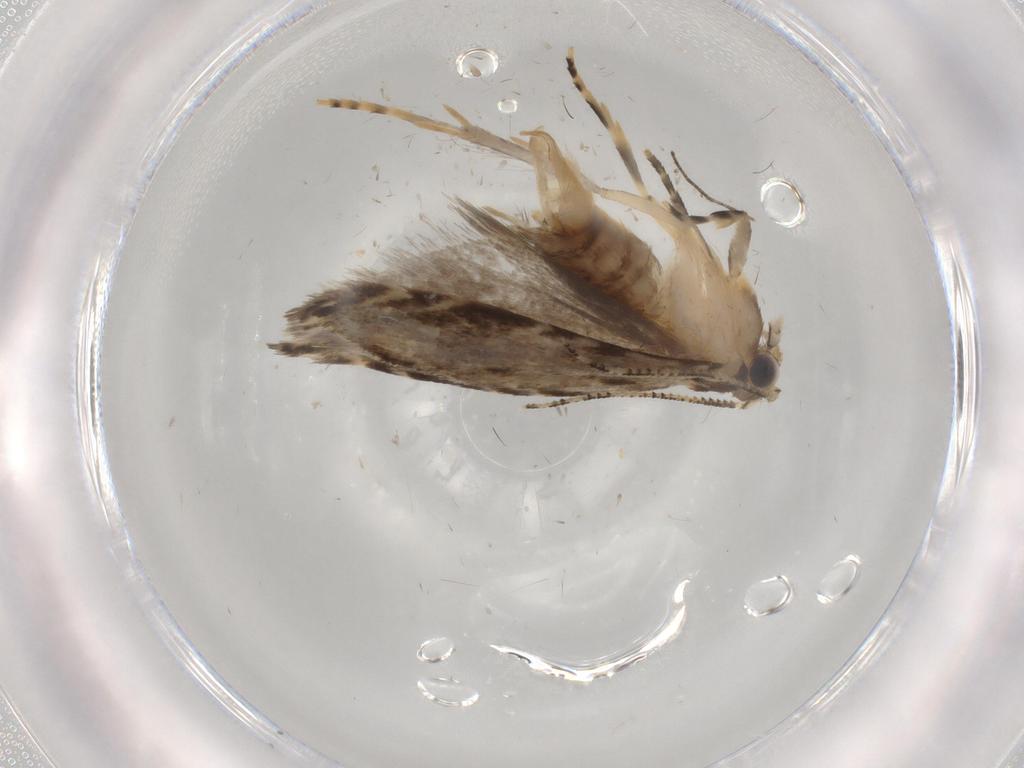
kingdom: Animalia
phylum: Arthropoda
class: Insecta
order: Lepidoptera
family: Tineidae
